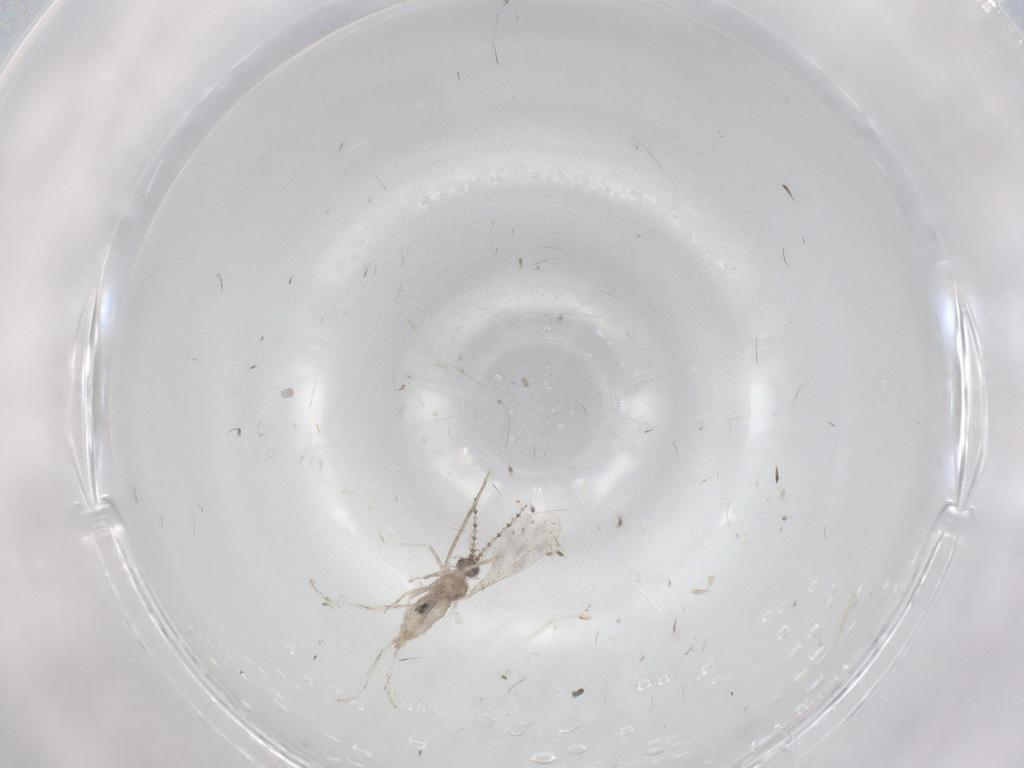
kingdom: Animalia
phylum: Arthropoda
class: Insecta
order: Diptera
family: Cecidomyiidae
